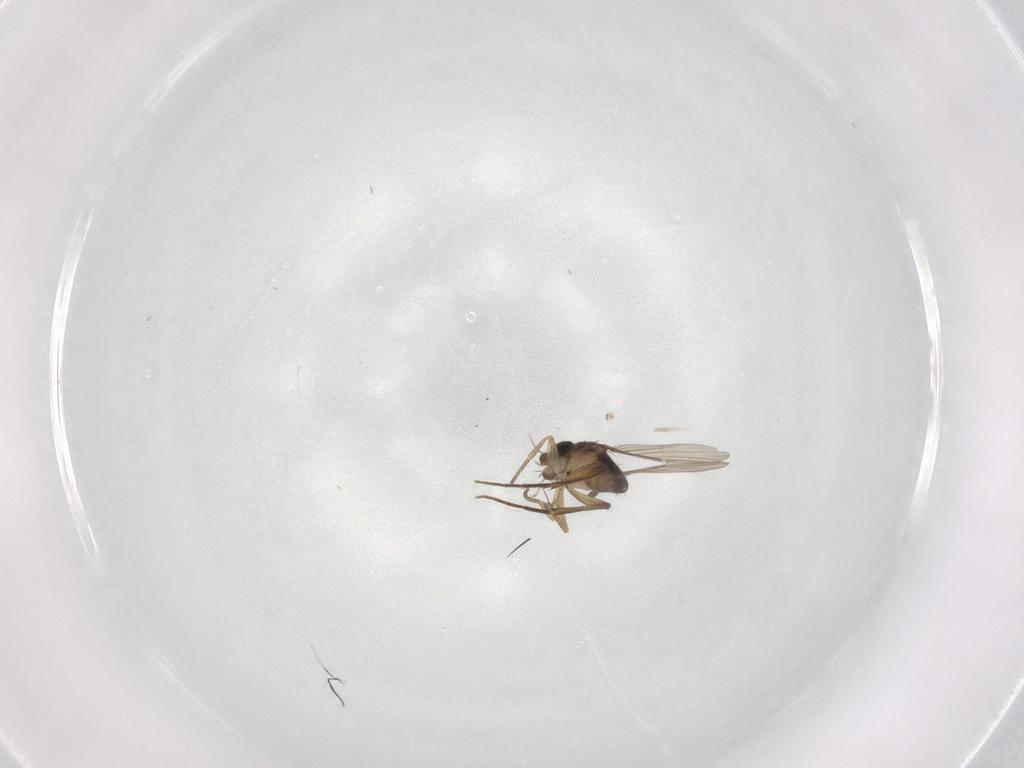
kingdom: Animalia
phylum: Arthropoda
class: Insecta
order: Diptera
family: Phoridae
